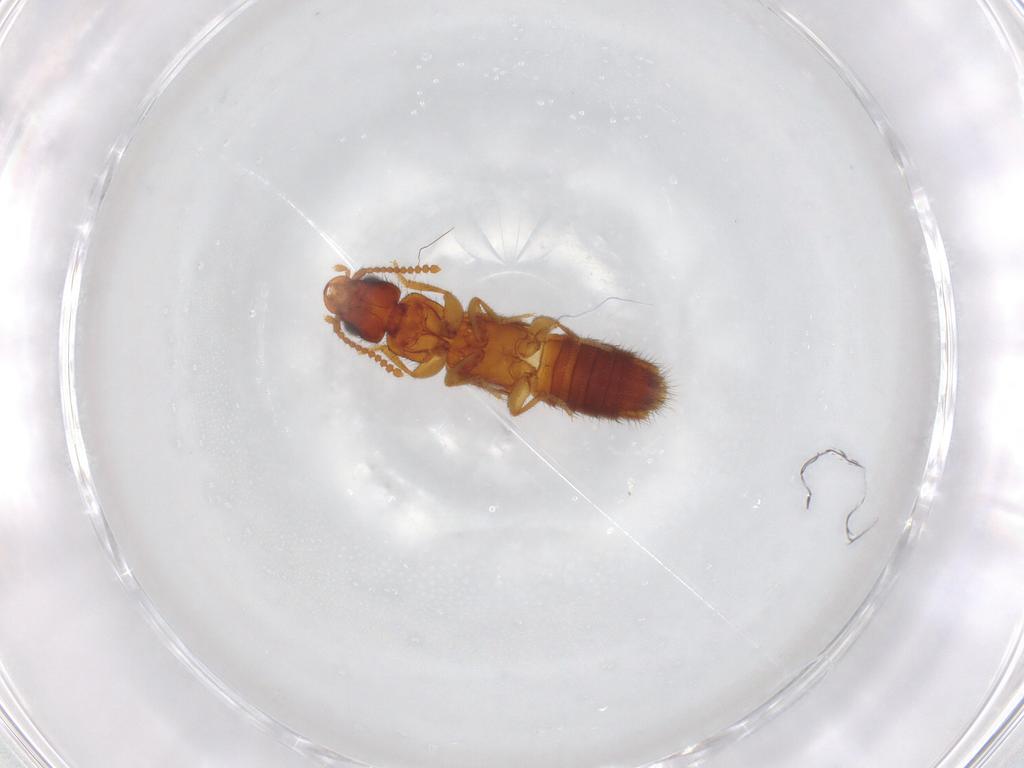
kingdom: Animalia
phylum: Arthropoda
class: Insecta
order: Coleoptera
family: Staphylinidae
